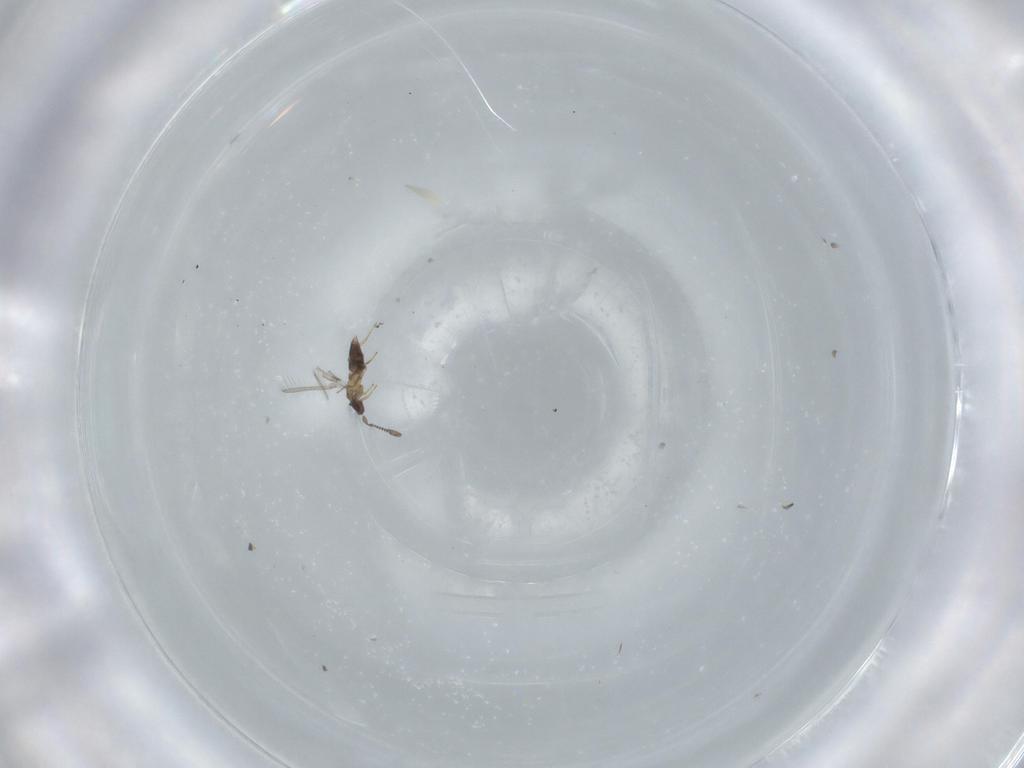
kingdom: Animalia
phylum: Arthropoda
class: Insecta
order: Hymenoptera
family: Mymaridae
